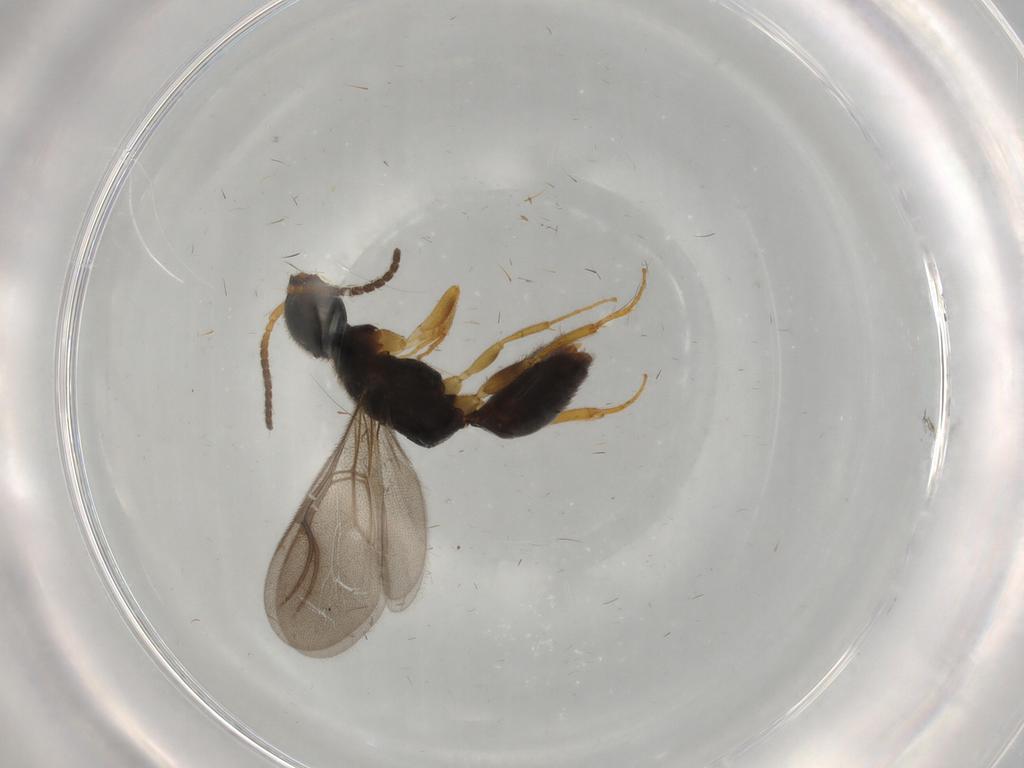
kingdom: Animalia
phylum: Arthropoda
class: Insecta
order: Hymenoptera
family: Bethylidae
